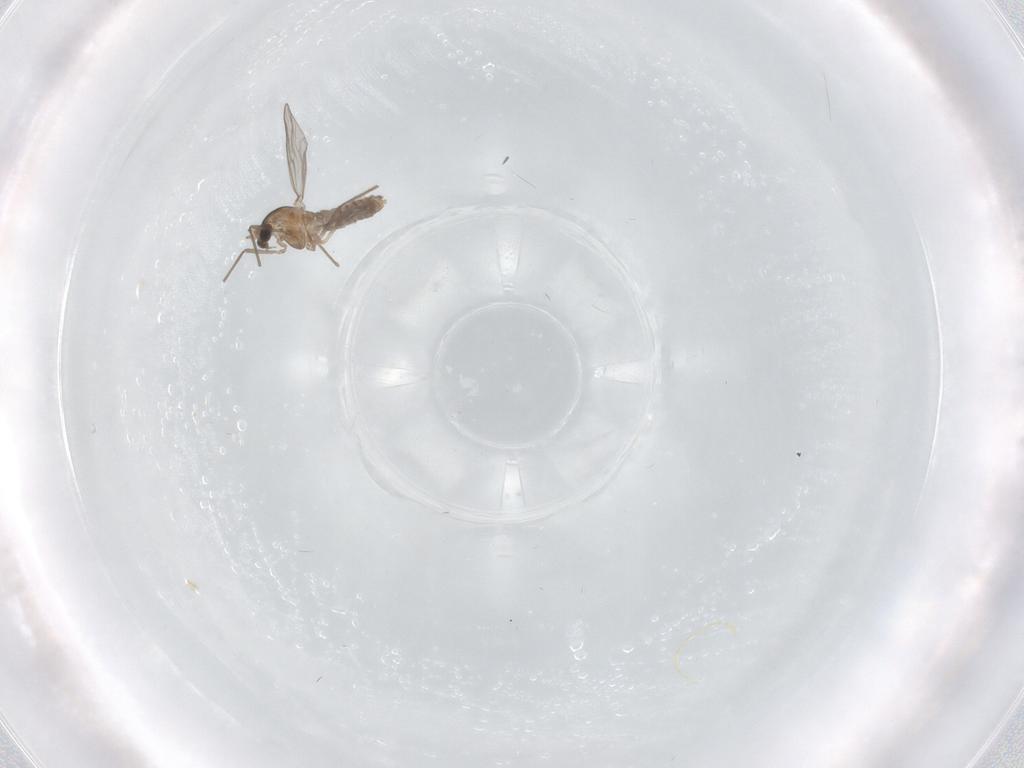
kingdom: Animalia
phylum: Arthropoda
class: Insecta
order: Diptera
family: Chironomidae
